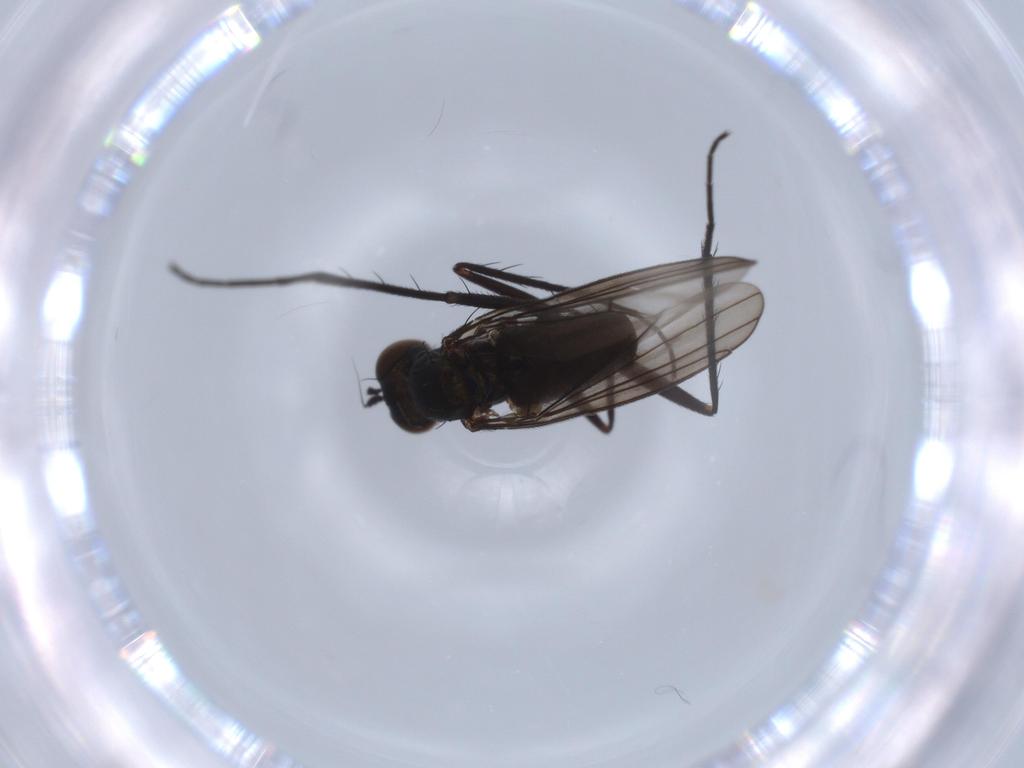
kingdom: Animalia
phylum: Arthropoda
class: Insecta
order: Diptera
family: Dolichopodidae
